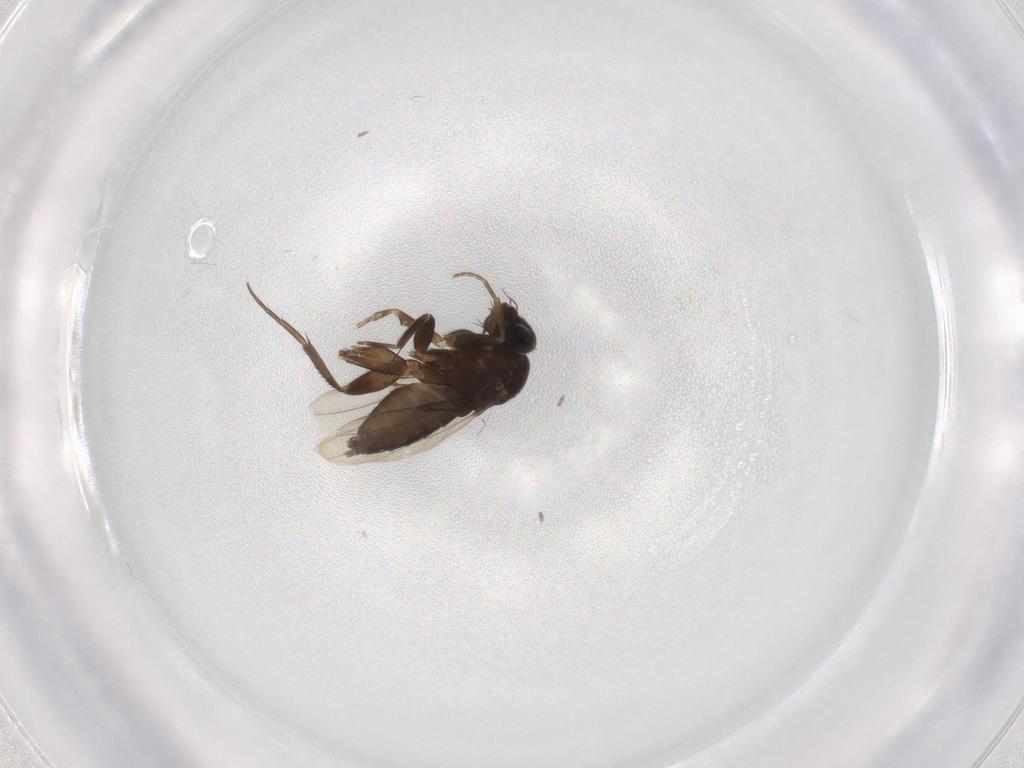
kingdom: Animalia
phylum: Arthropoda
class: Insecta
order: Diptera
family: Phoridae
